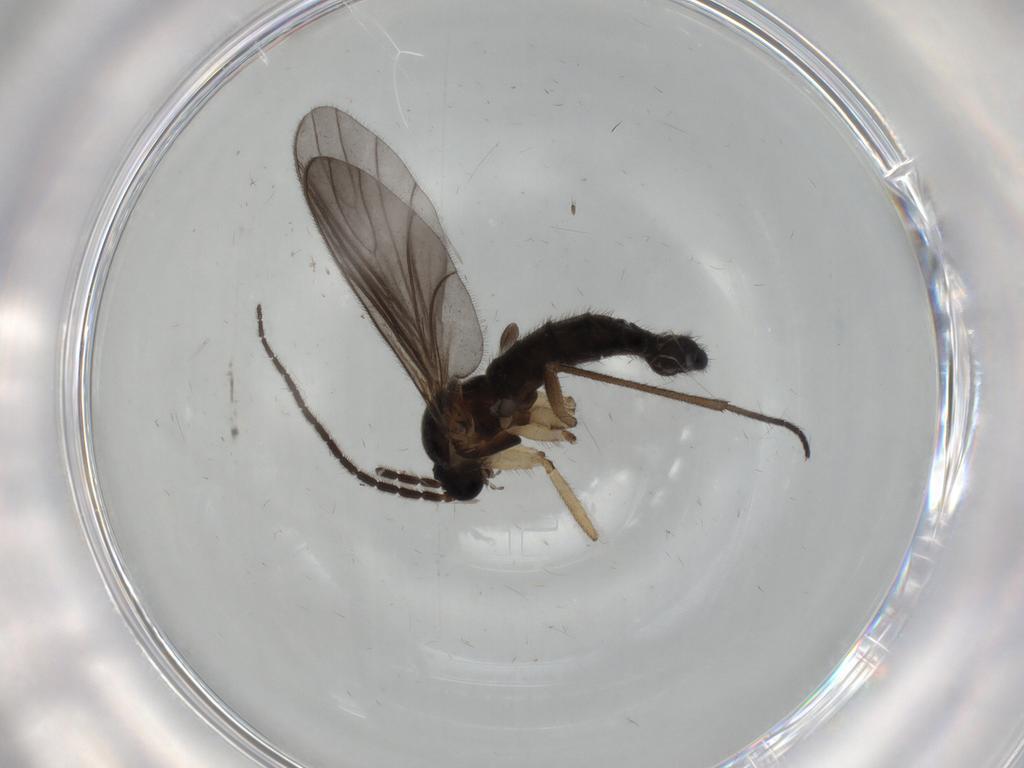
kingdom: Animalia
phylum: Arthropoda
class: Insecta
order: Diptera
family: Sciaridae
